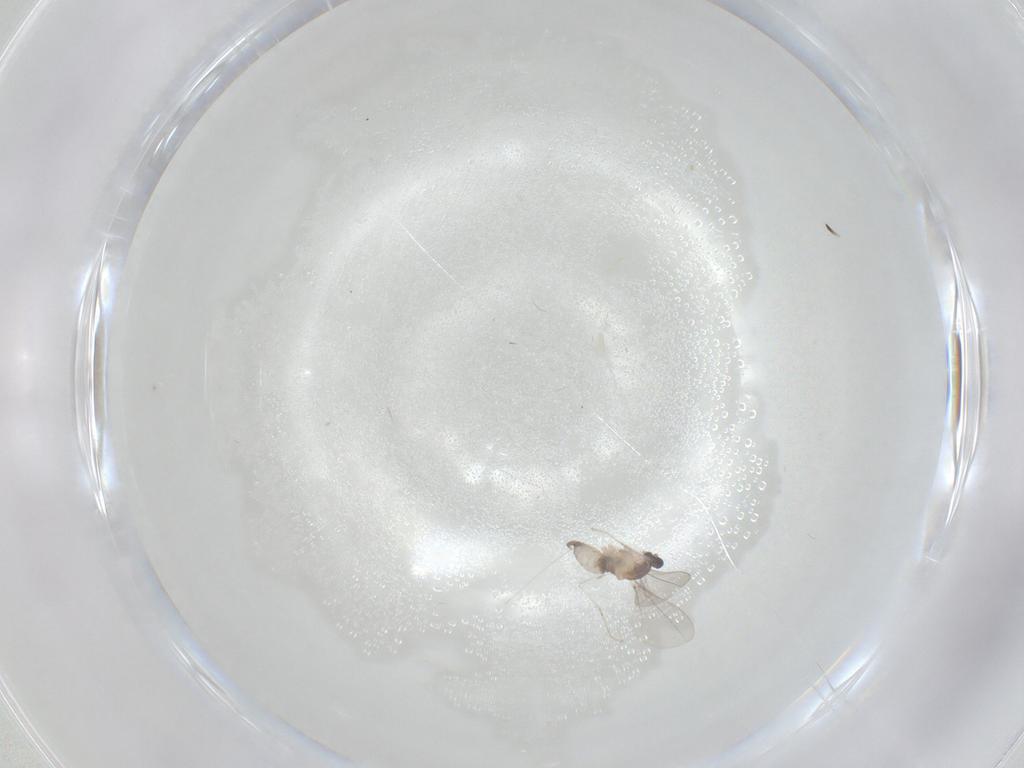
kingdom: Animalia
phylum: Arthropoda
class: Insecta
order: Diptera
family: Cecidomyiidae
